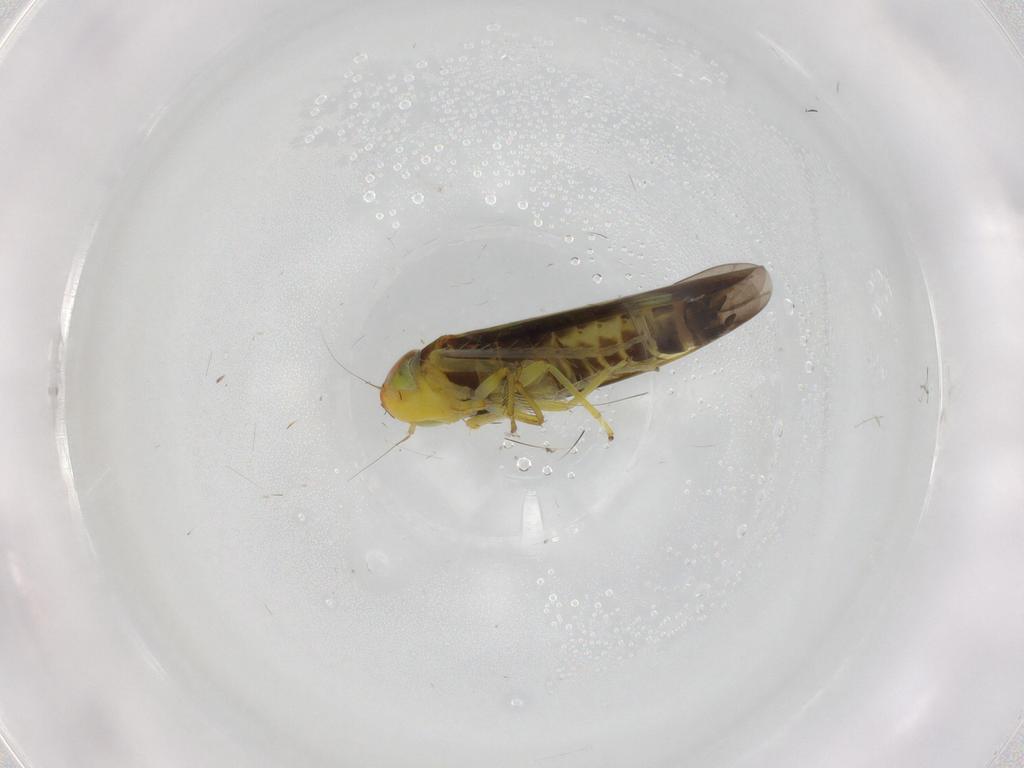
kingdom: Animalia
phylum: Arthropoda
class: Insecta
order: Hemiptera
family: Cicadellidae
